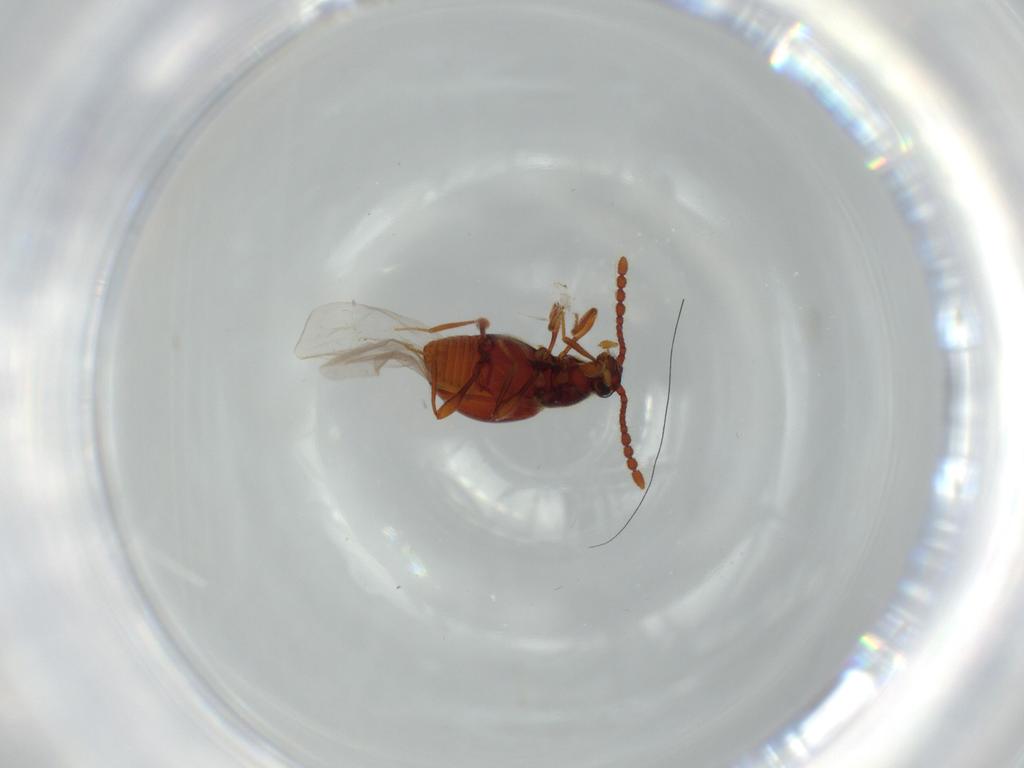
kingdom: Animalia
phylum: Arthropoda
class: Insecta
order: Coleoptera
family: Staphylinidae
